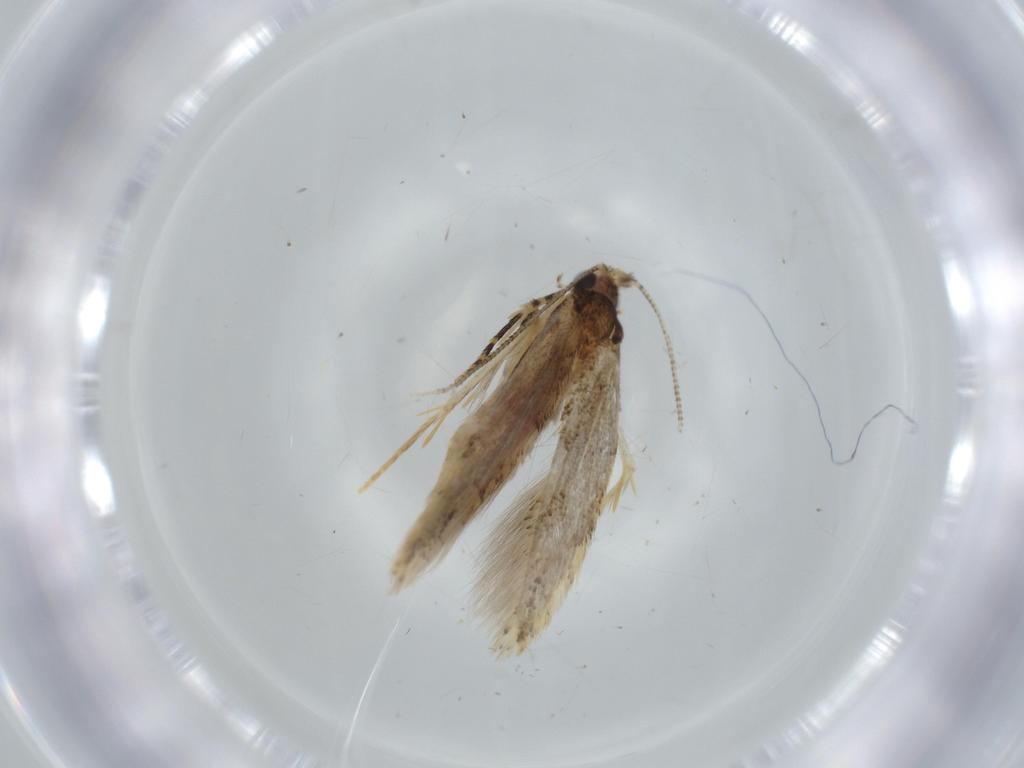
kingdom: Animalia
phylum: Arthropoda
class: Insecta
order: Lepidoptera
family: Tineidae
